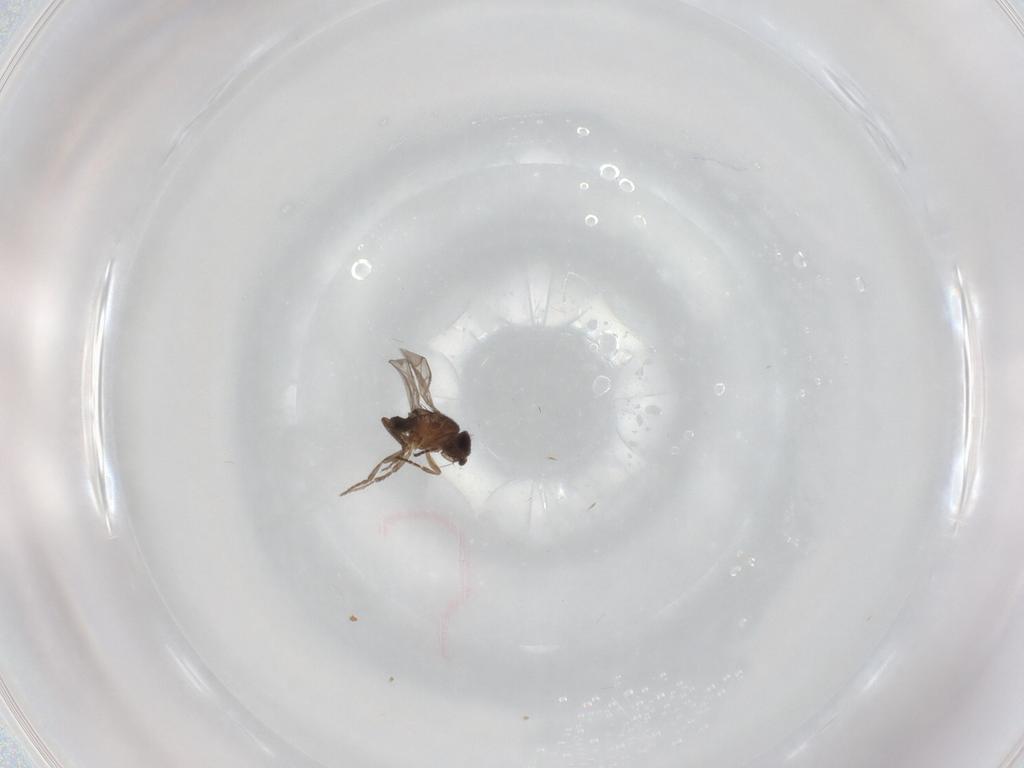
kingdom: Animalia
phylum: Arthropoda
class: Insecta
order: Diptera
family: Sphaeroceridae
